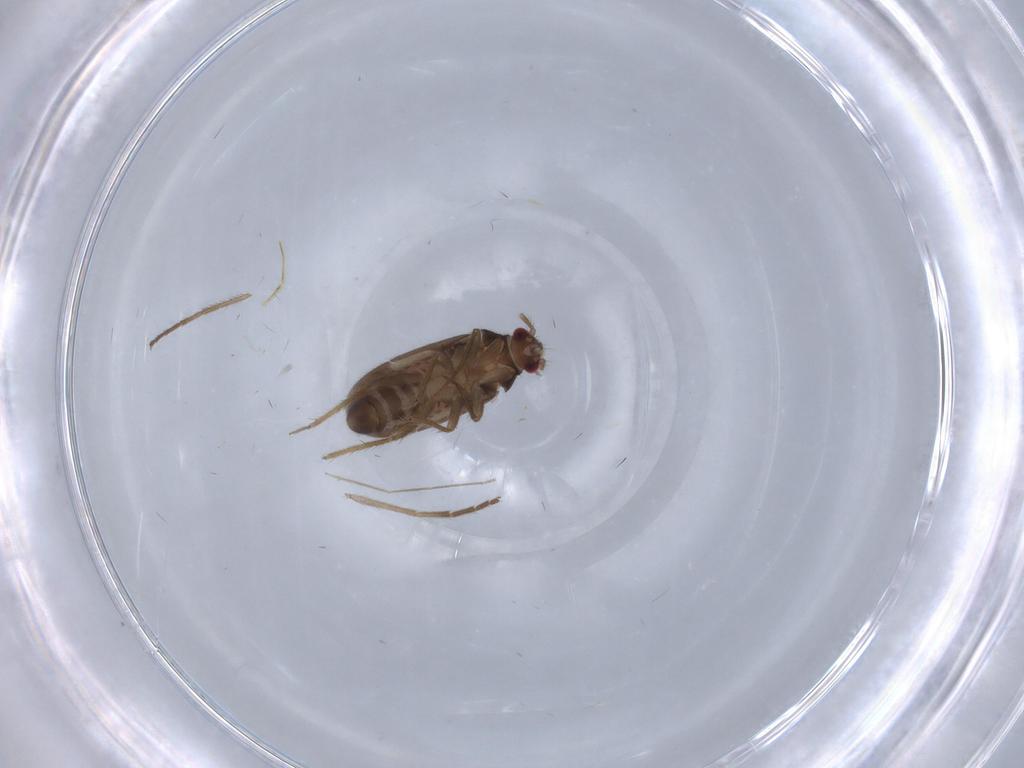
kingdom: Animalia
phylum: Arthropoda
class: Insecta
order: Hemiptera
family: Ceratocombidae
